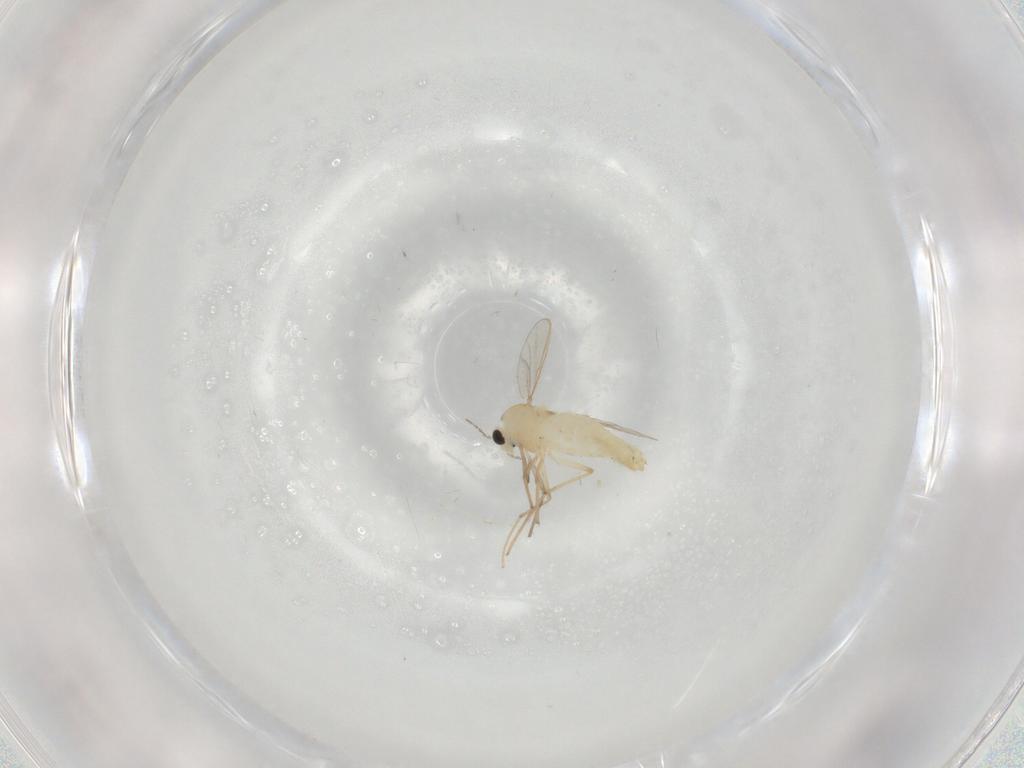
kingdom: Animalia
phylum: Arthropoda
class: Insecta
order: Diptera
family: Chironomidae
